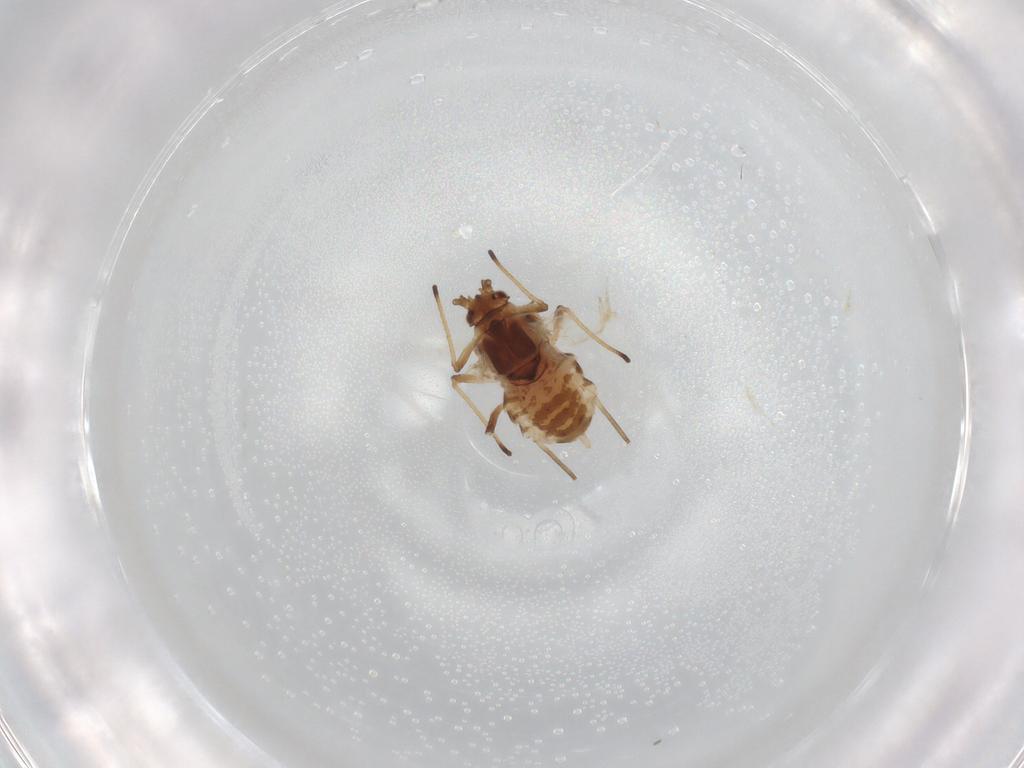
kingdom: Animalia
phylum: Arthropoda
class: Insecta
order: Hemiptera
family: Aphididae
